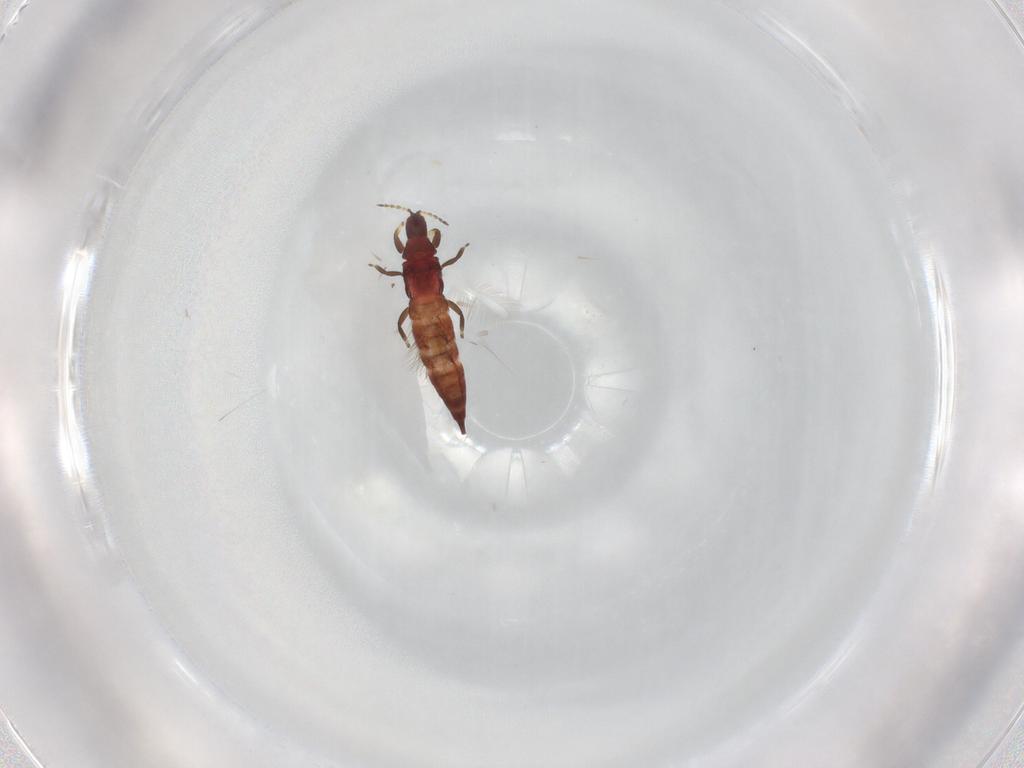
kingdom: Animalia
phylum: Arthropoda
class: Insecta
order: Thysanoptera
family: Phlaeothripidae
